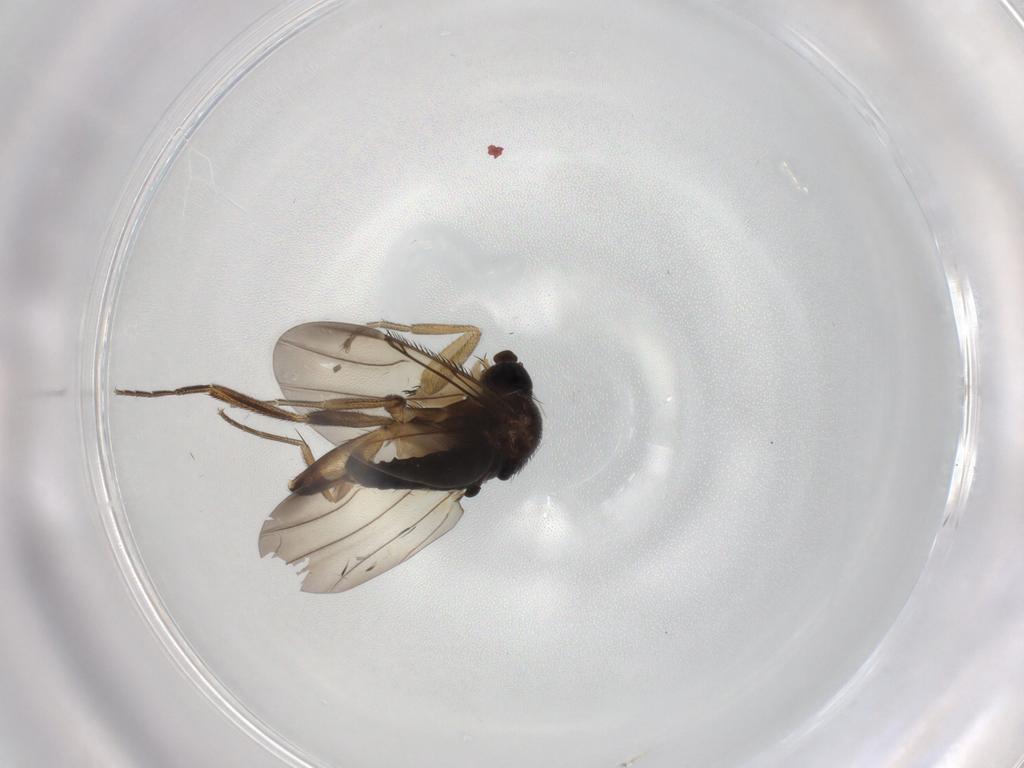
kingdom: Animalia
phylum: Arthropoda
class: Insecta
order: Diptera
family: Phoridae
